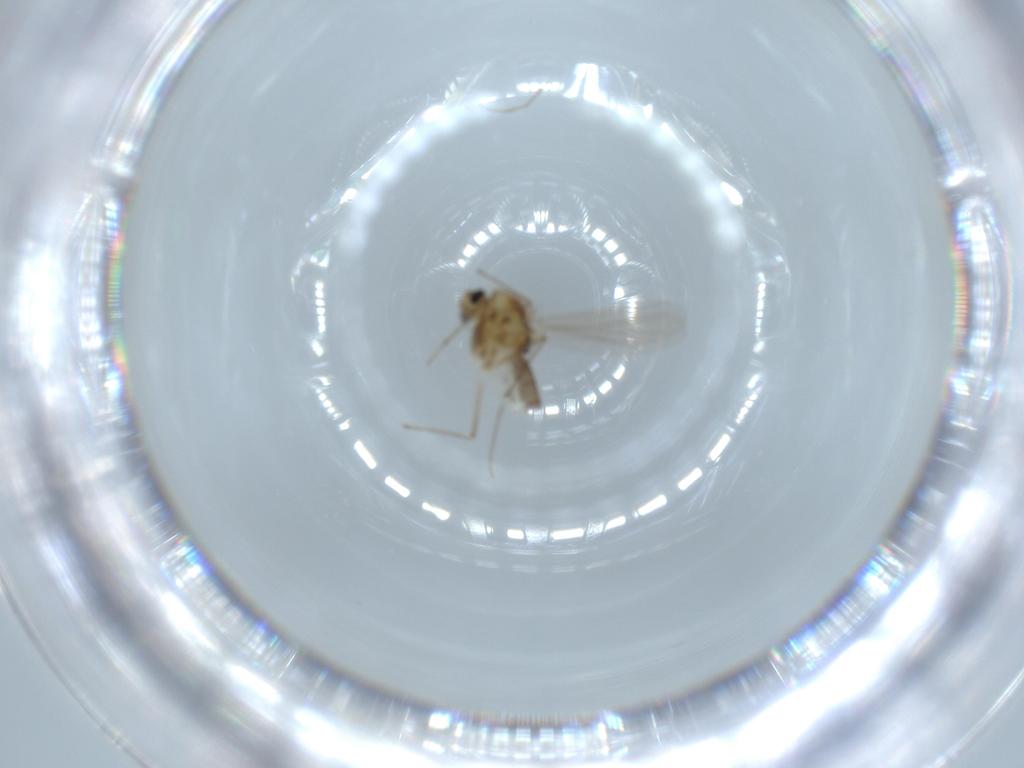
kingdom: Animalia
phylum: Arthropoda
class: Insecta
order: Diptera
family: Chironomidae
